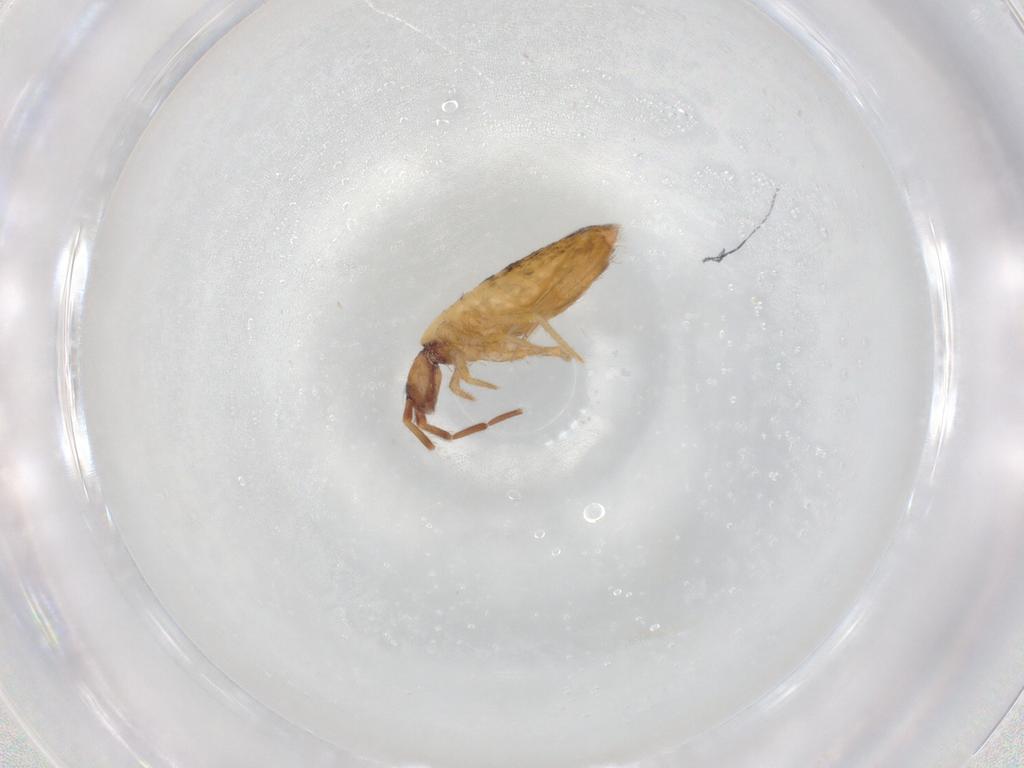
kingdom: Animalia
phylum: Arthropoda
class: Collembola
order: Entomobryomorpha
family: Entomobryidae
